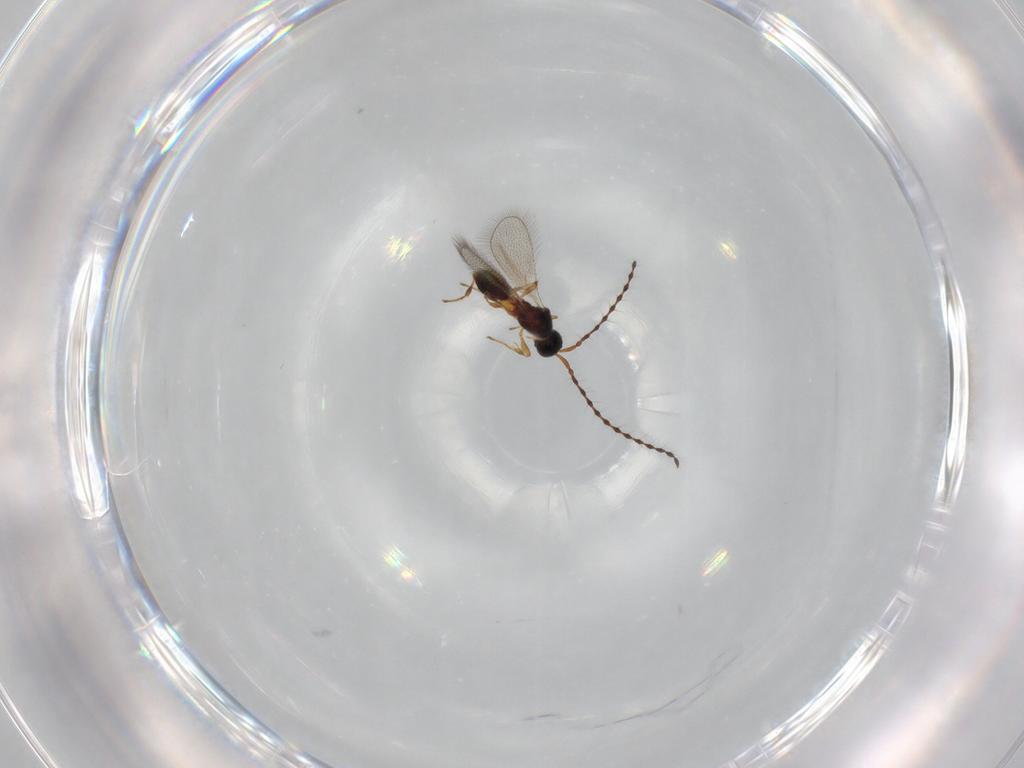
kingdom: Animalia
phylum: Arthropoda
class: Insecta
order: Hymenoptera
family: Diapriidae
